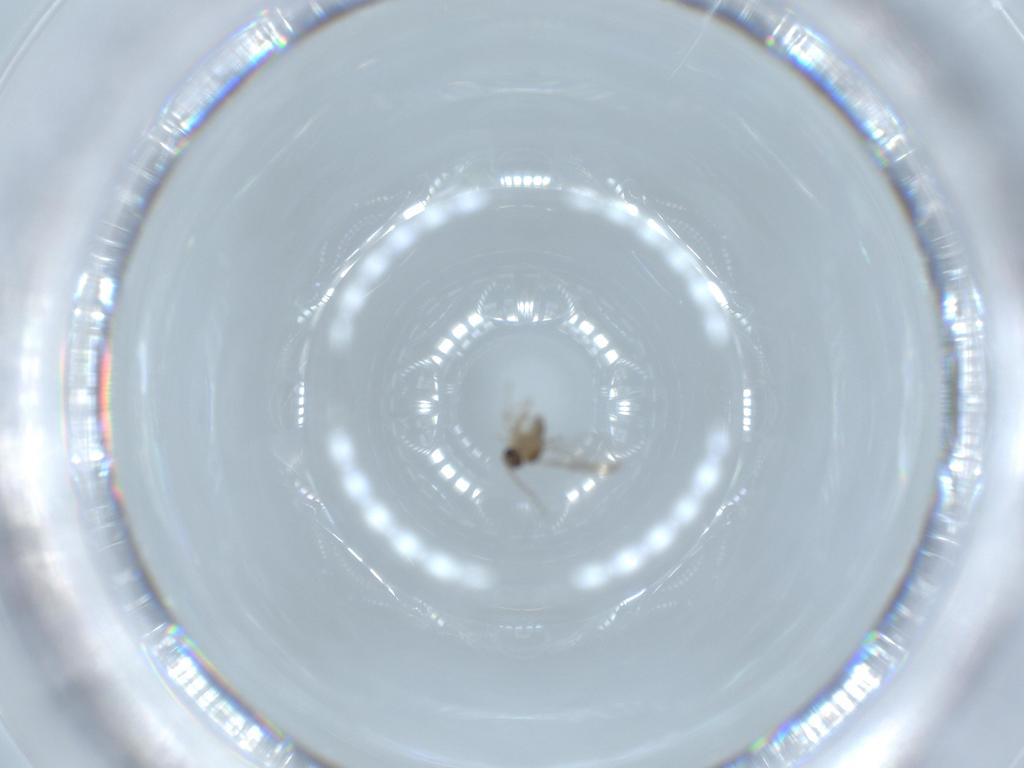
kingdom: Animalia
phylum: Arthropoda
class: Insecta
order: Diptera
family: Cecidomyiidae
